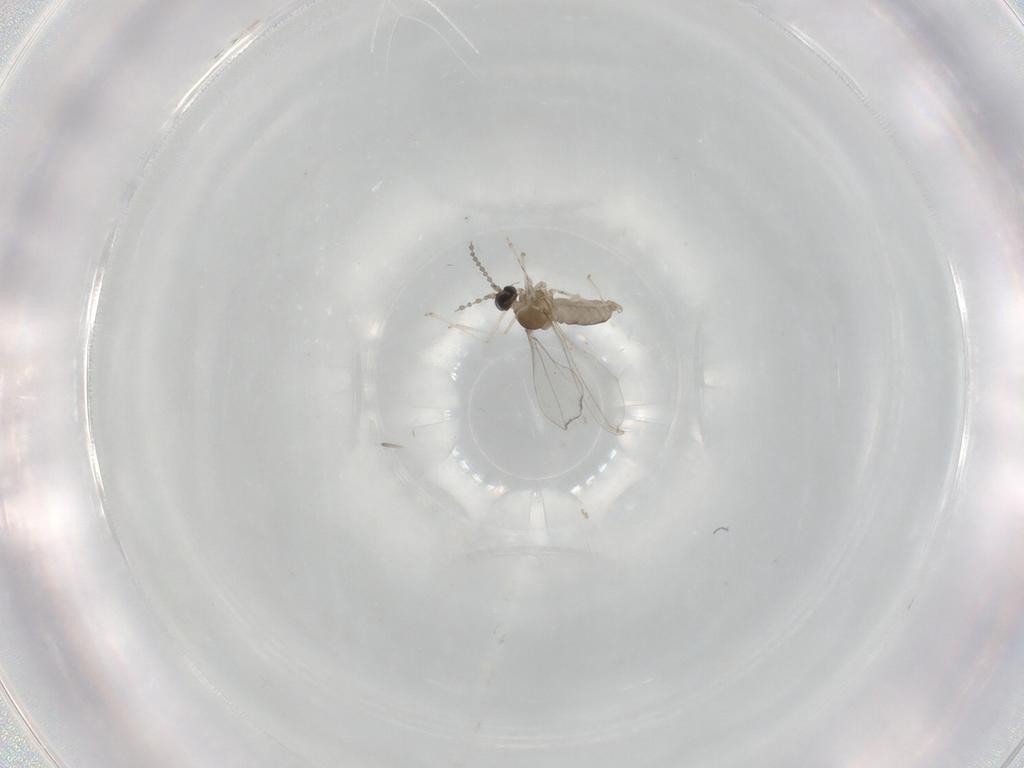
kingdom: Animalia
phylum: Arthropoda
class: Insecta
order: Diptera
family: Cecidomyiidae
